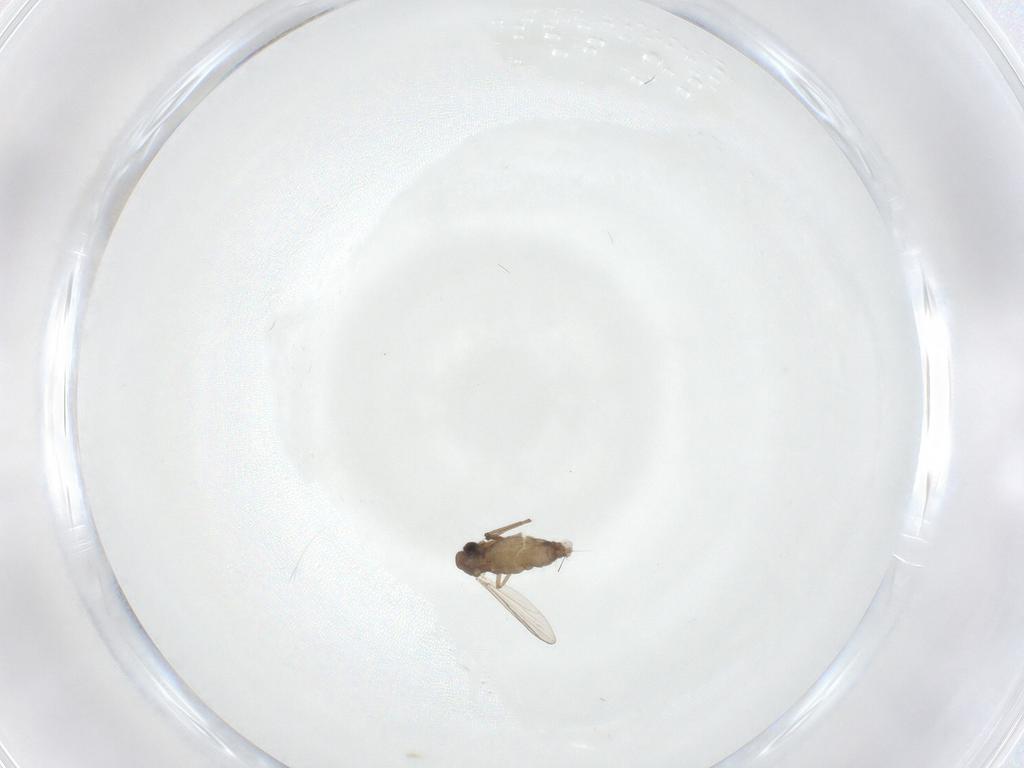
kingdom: Animalia
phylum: Arthropoda
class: Insecta
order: Diptera
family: Chironomidae
